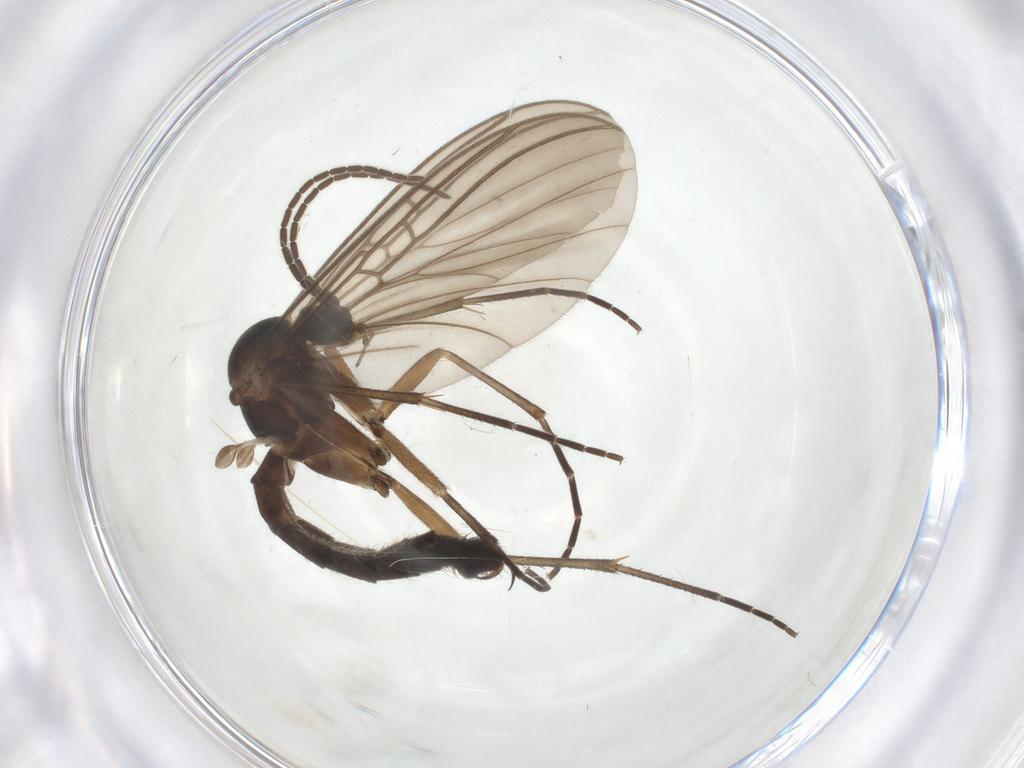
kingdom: Animalia
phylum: Arthropoda
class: Insecta
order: Diptera
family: Mycetophilidae
